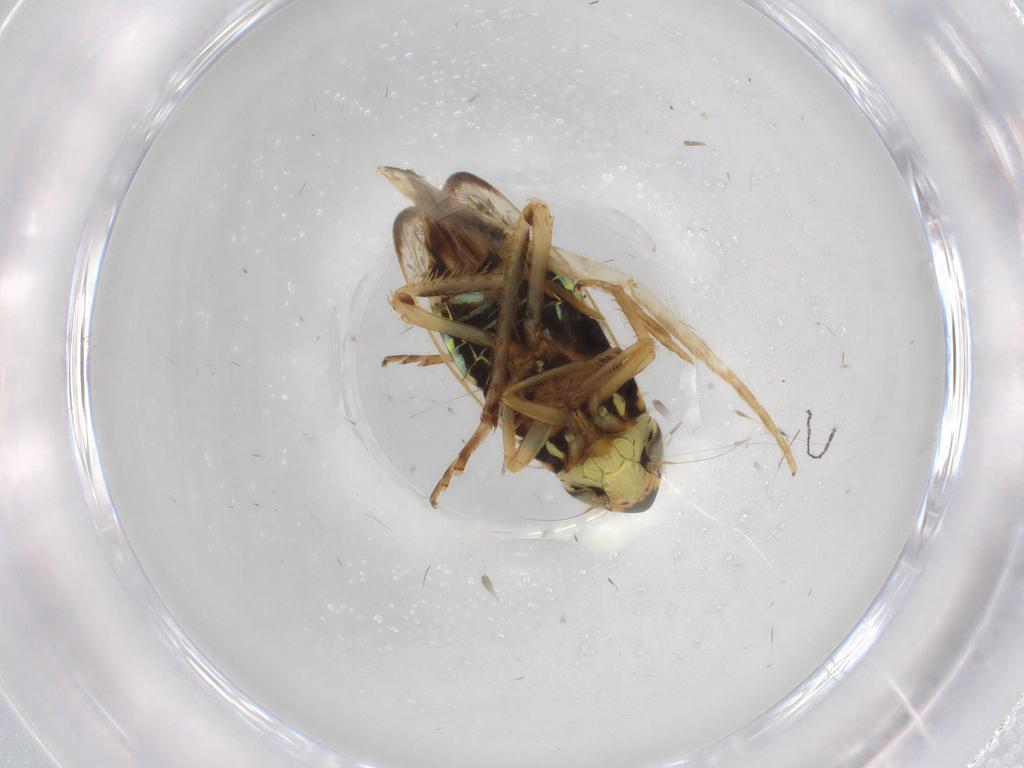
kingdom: Animalia
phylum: Arthropoda
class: Insecta
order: Hemiptera
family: Cicadellidae
